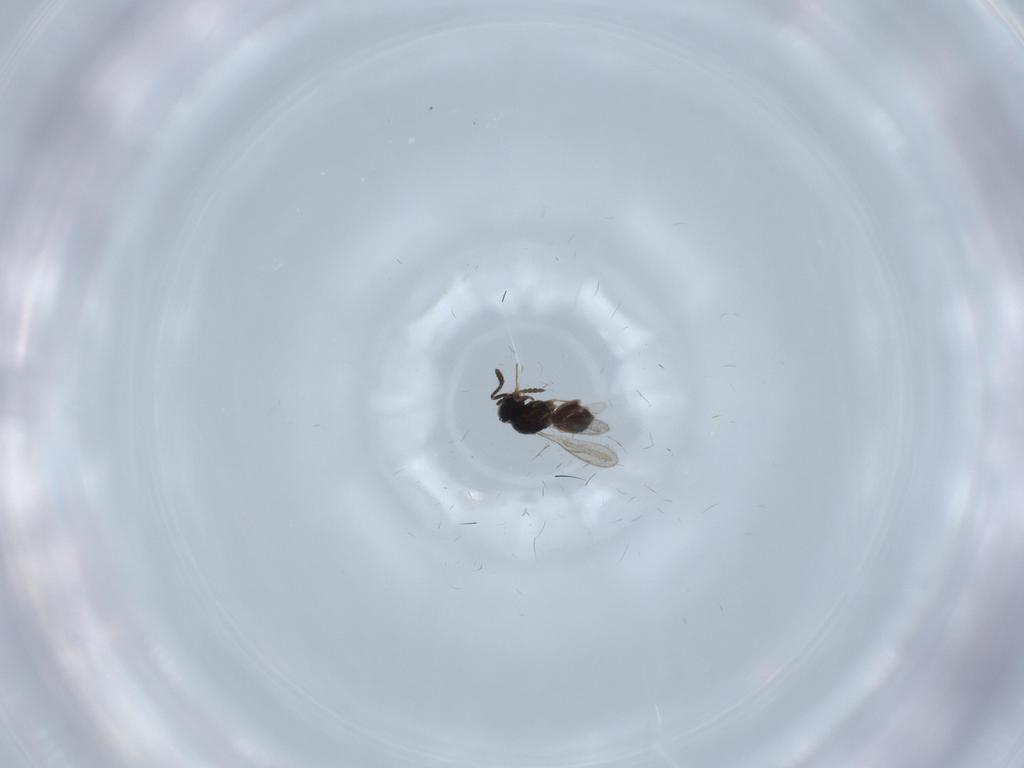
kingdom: Animalia
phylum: Arthropoda
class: Insecta
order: Hymenoptera
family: Scelionidae
